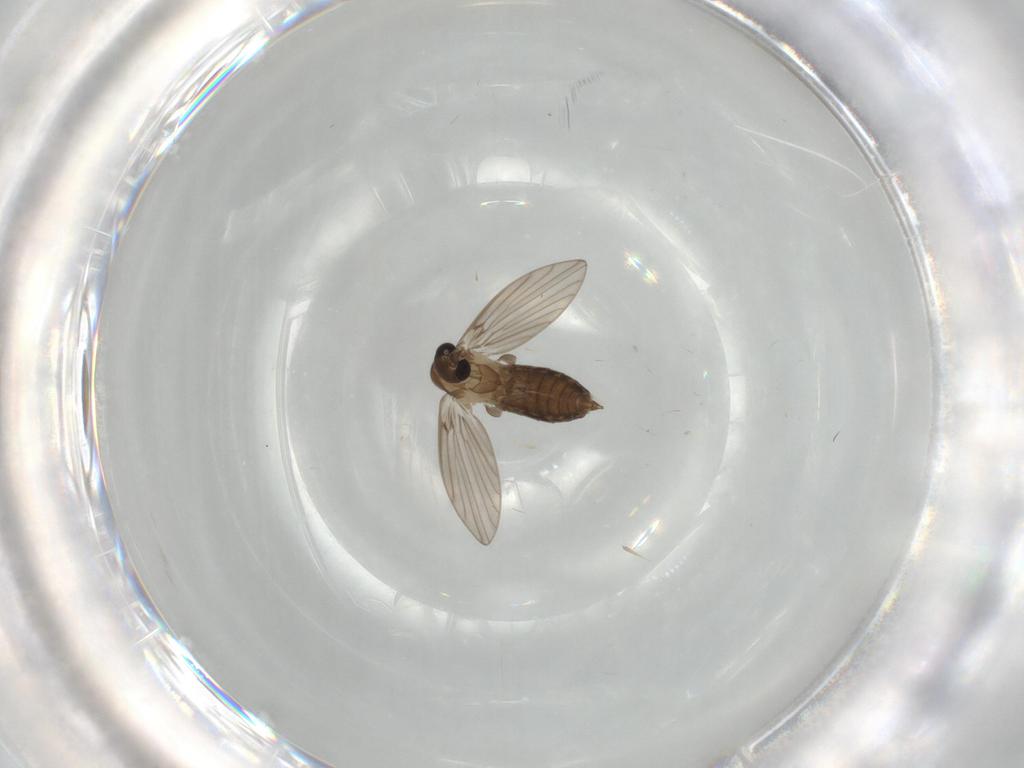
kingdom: Animalia
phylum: Arthropoda
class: Insecta
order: Diptera
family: Psychodidae
